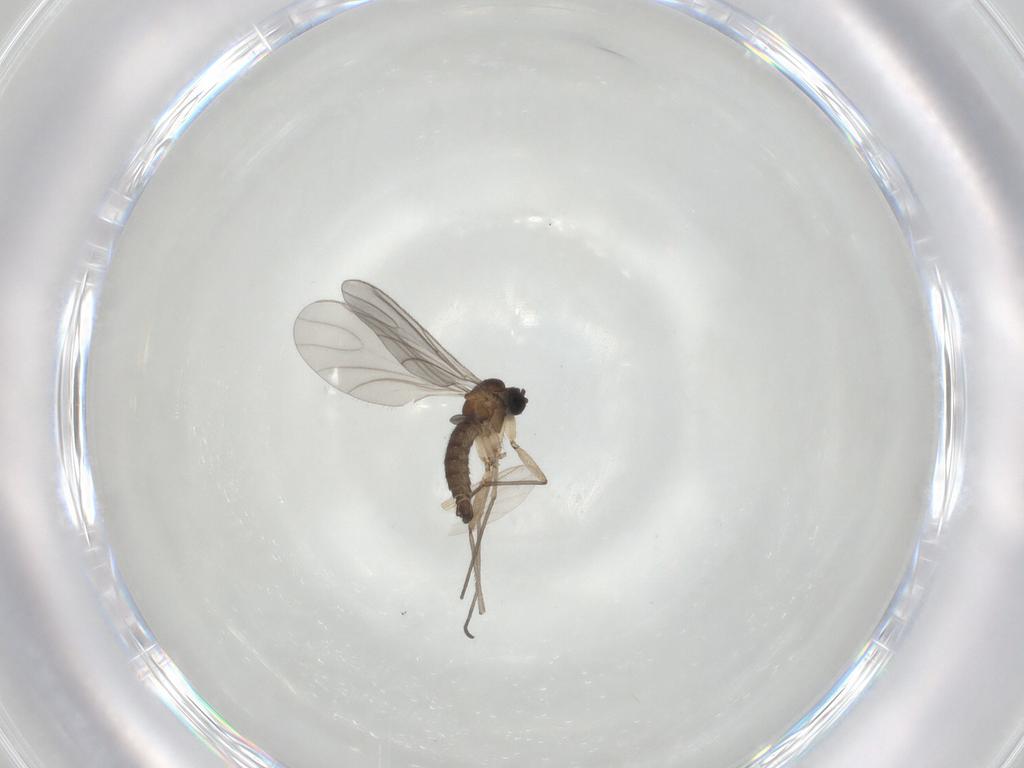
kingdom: Animalia
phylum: Arthropoda
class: Insecta
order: Diptera
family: Sciaridae
